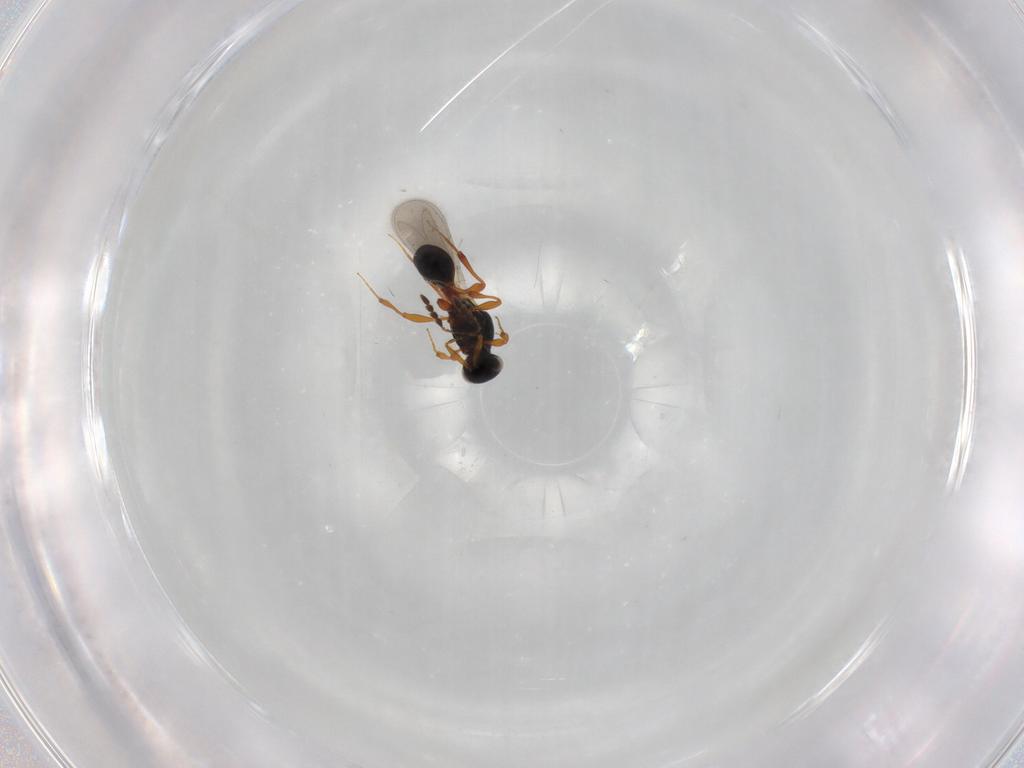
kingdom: Animalia
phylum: Arthropoda
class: Insecta
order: Hymenoptera
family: Platygastridae
